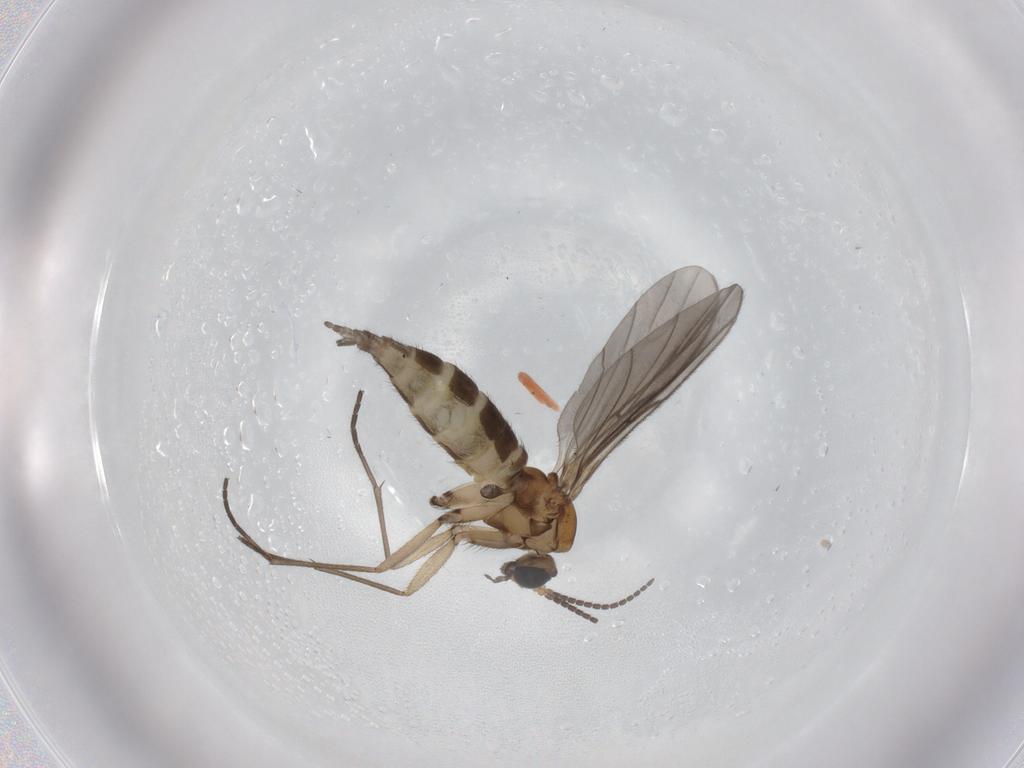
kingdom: Animalia
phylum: Arthropoda
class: Insecta
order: Diptera
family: Sciaridae
